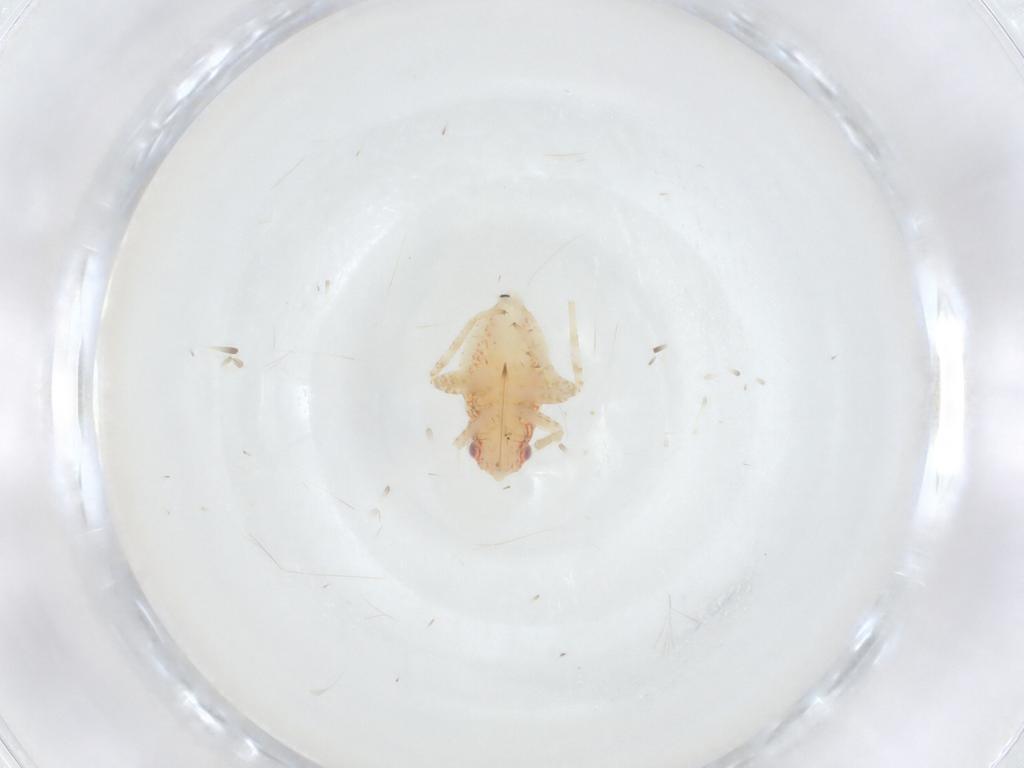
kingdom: Animalia
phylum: Arthropoda
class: Insecta
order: Hemiptera
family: Miridae
